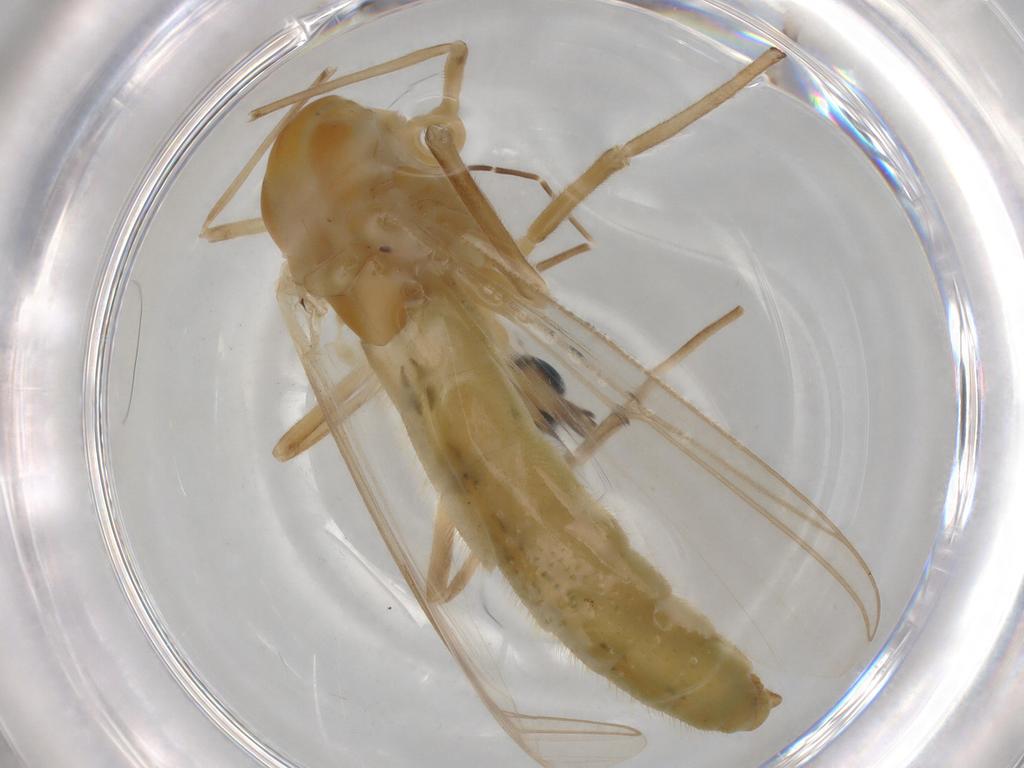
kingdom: Animalia
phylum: Arthropoda
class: Insecta
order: Diptera
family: Chironomidae
